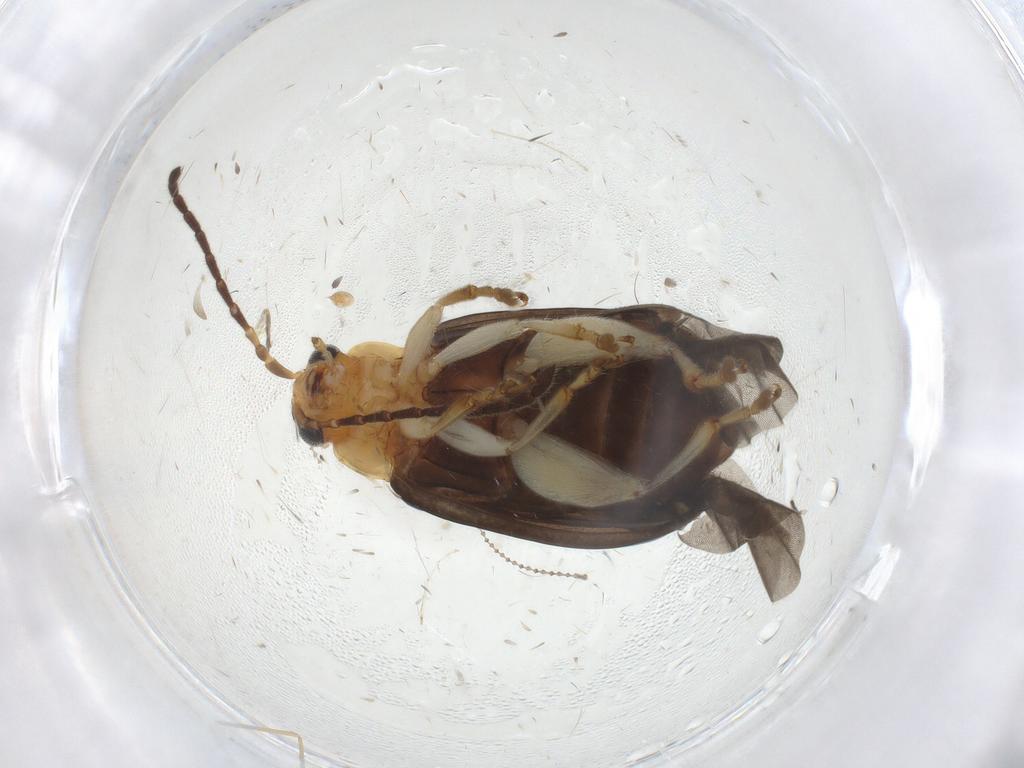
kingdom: Animalia
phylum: Arthropoda
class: Insecta
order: Coleoptera
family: Chrysomelidae
